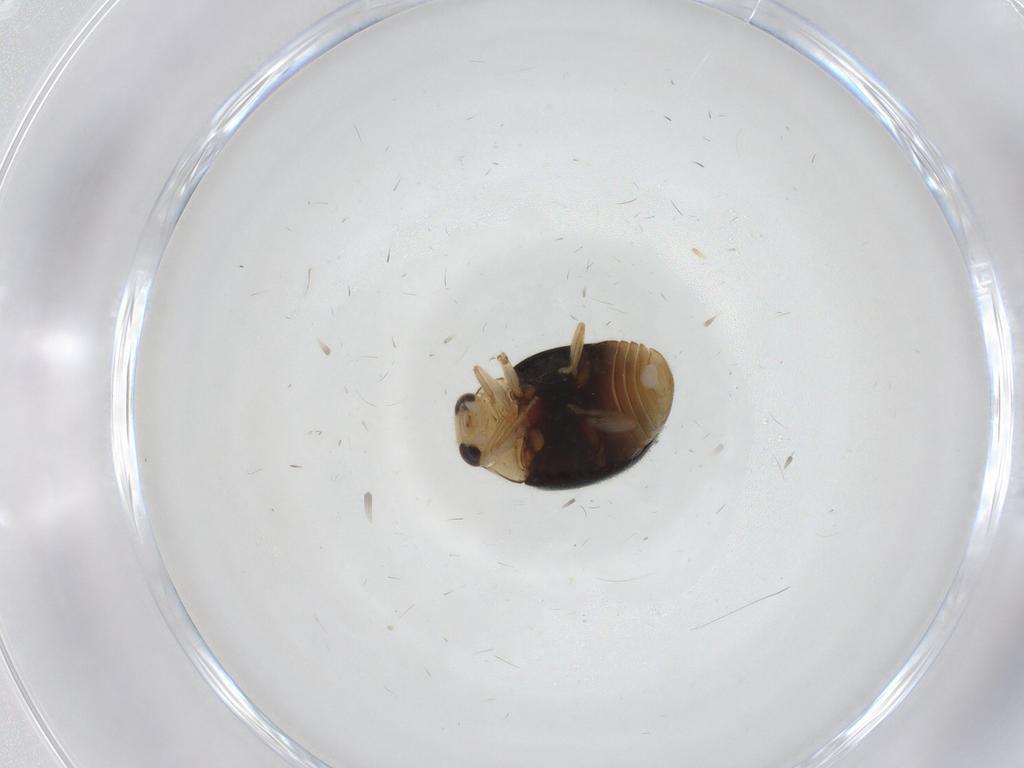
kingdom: Animalia
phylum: Arthropoda
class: Insecta
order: Coleoptera
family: Coccinellidae
